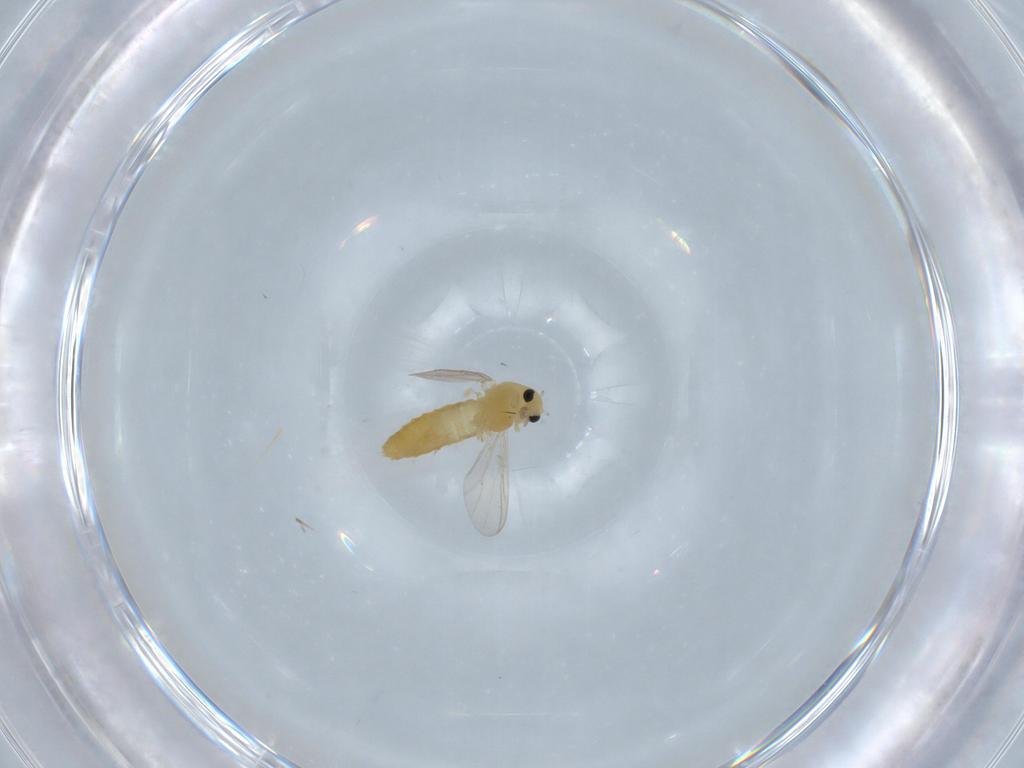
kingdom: Animalia
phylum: Arthropoda
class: Insecta
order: Diptera
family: Chironomidae
